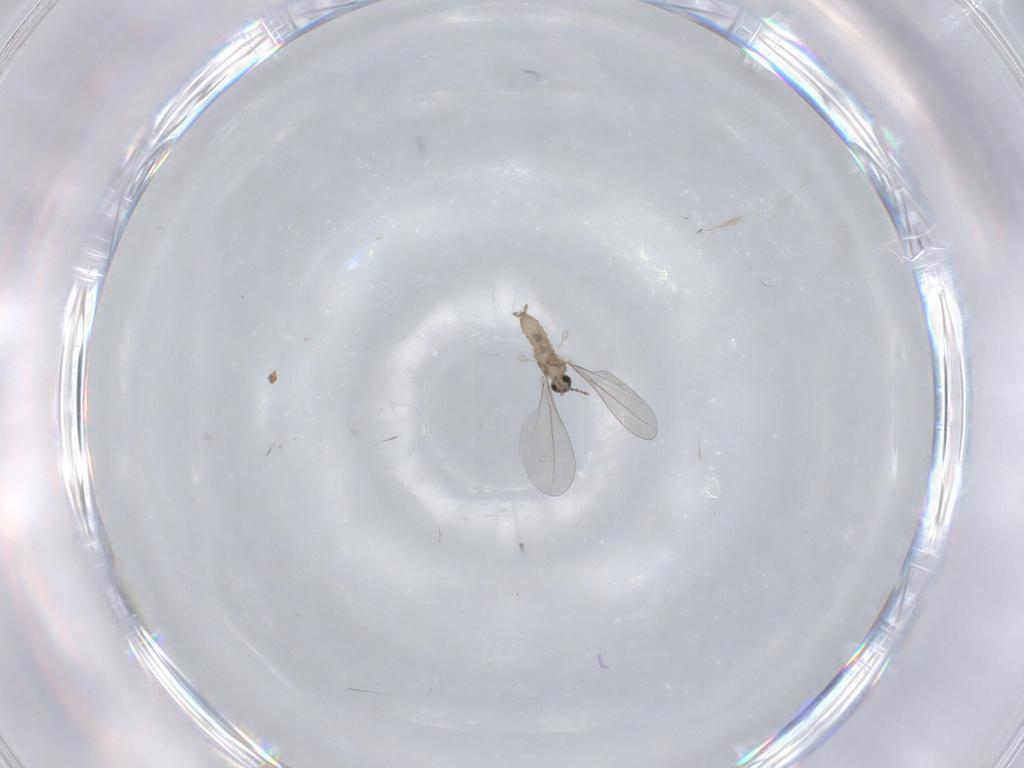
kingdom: Animalia
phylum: Arthropoda
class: Insecta
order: Diptera
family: Cecidomyiidae
